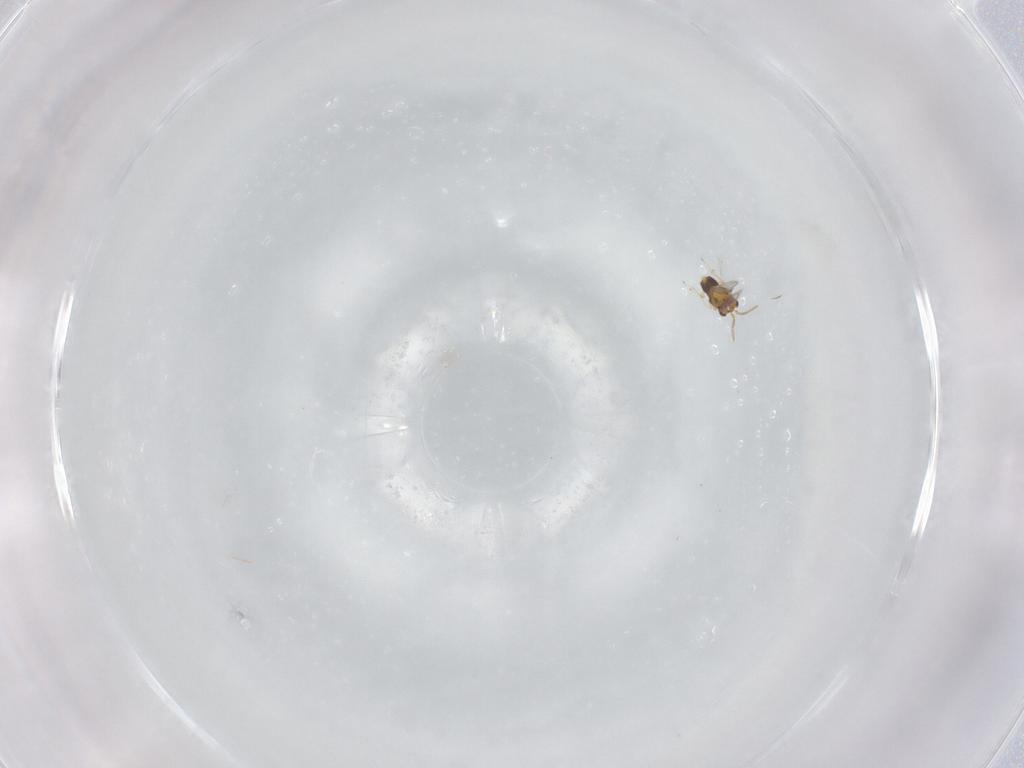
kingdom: Animalia
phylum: Arthropoda
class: Insecta
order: Hymenoptera
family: Aphelinidae
